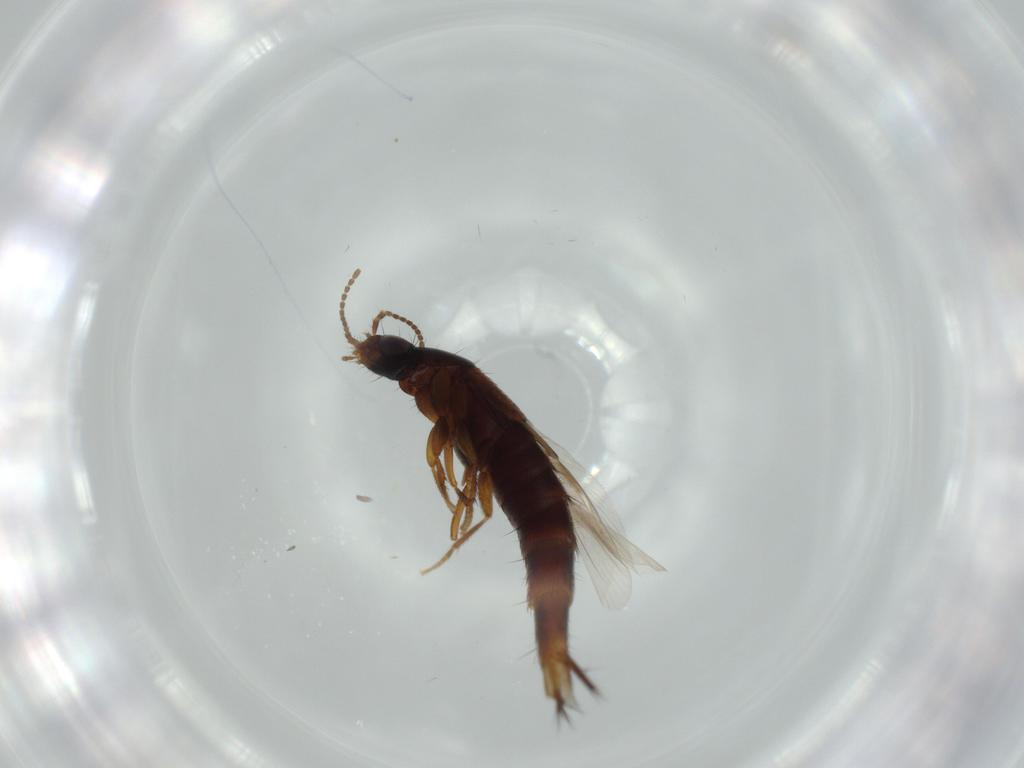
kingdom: Animalia
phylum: Arthropoda
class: Insecta
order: Coleoptera
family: Staphylinidae
